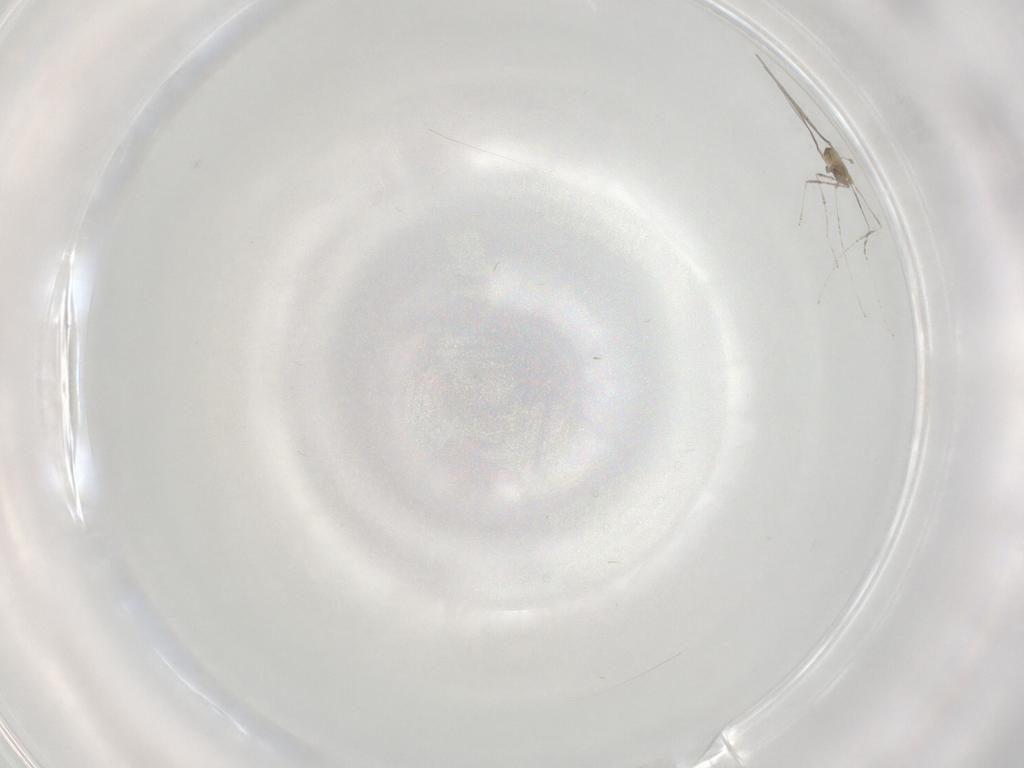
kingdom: Animalia
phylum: Arthropoda
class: Insecta
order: Diptera
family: Cecidomyiidae
